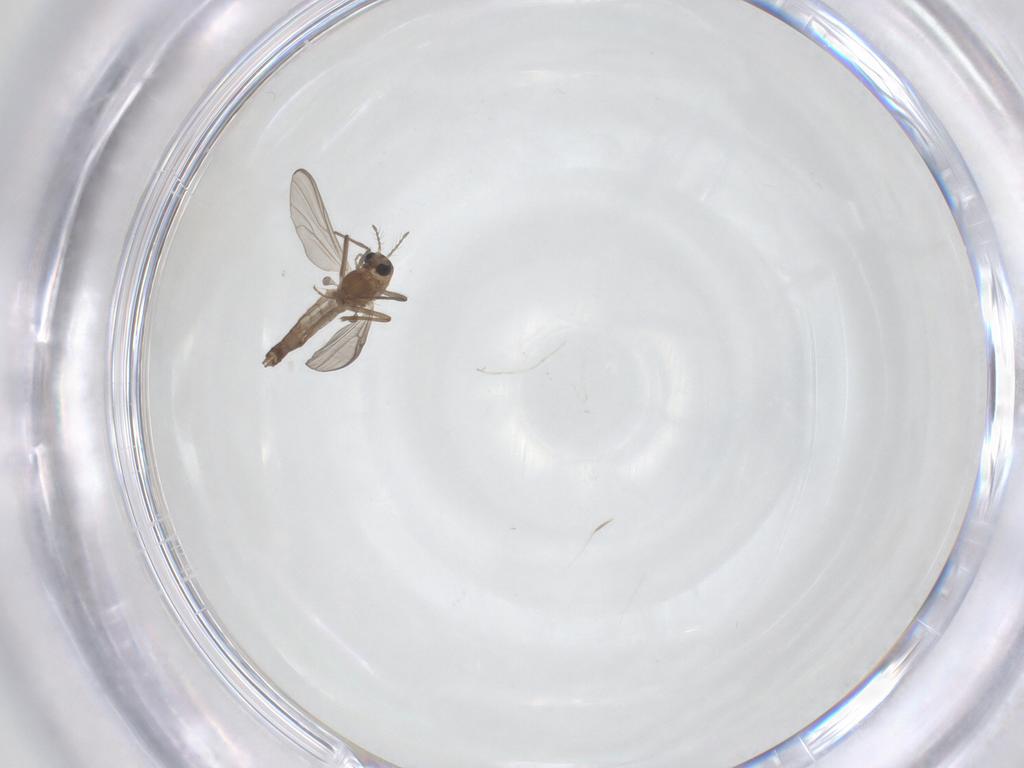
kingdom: Animalia
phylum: Arthropoda
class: Insecta
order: Diptera
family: Chironomidae
